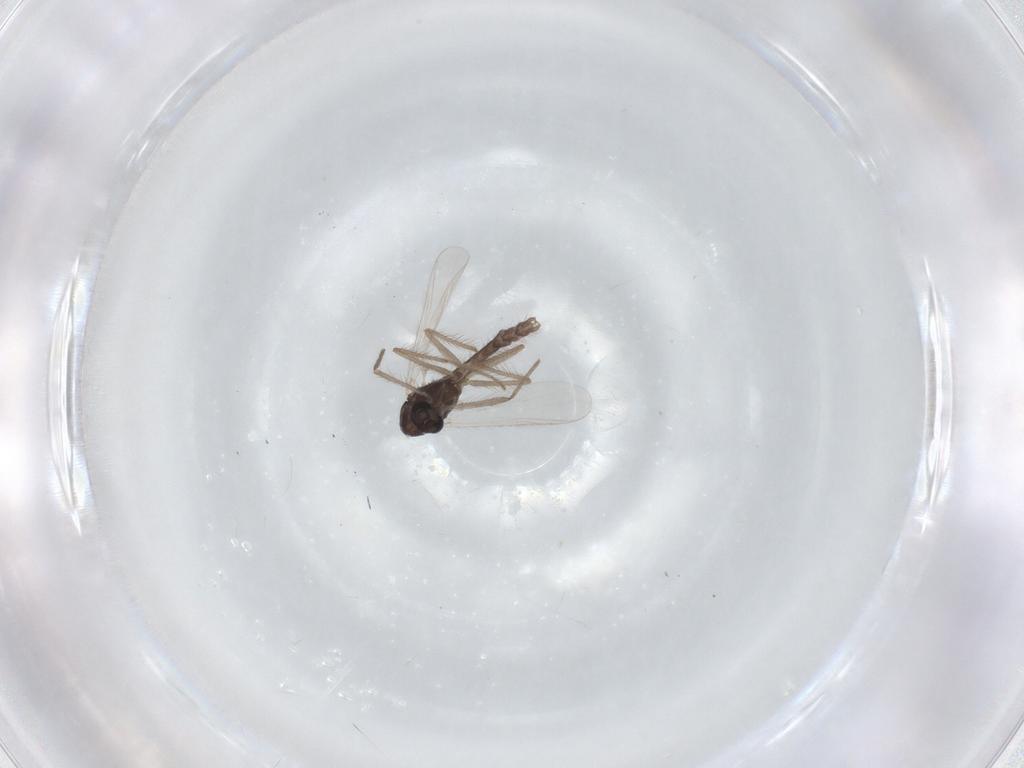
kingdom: Animalia
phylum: Arthropoda
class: Insecta
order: Diptera
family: Chironomidae
